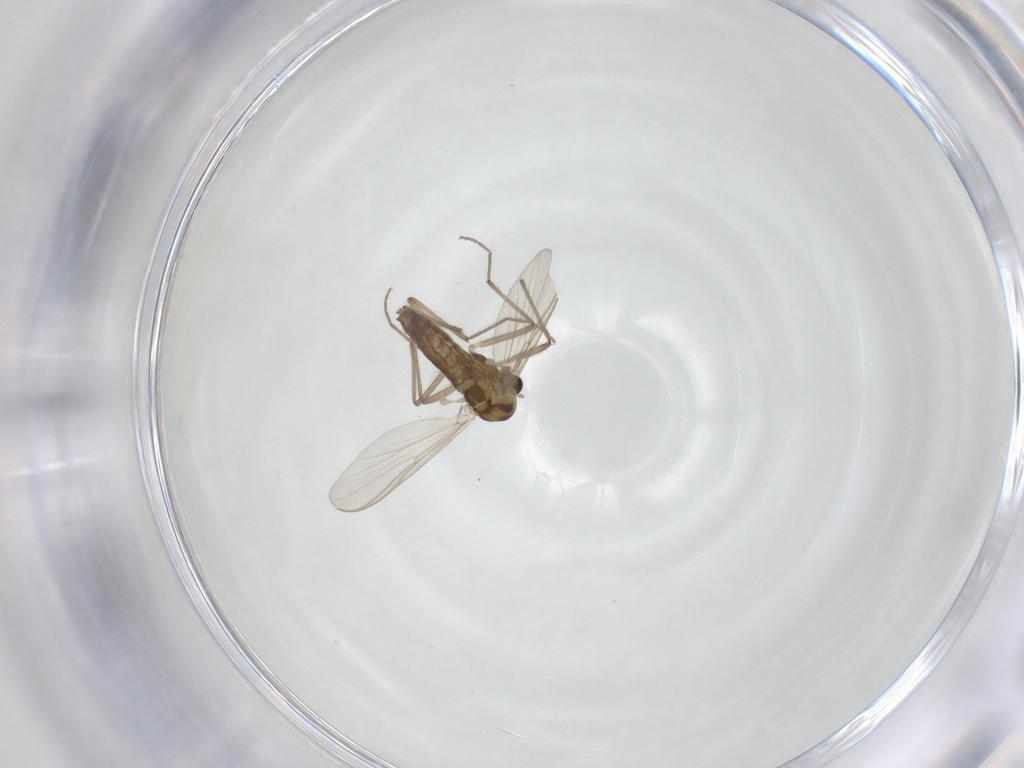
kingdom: Animalia
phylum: Arthropoda
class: Insecta
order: Diptera
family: Chironomidae
